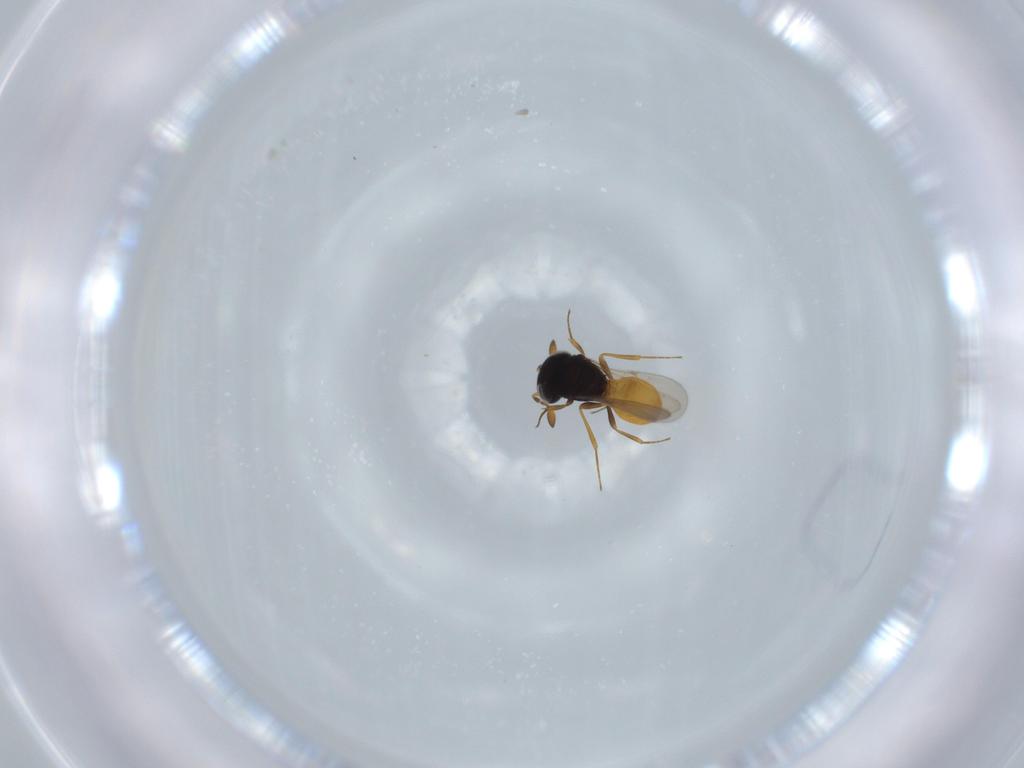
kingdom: Animalia
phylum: Arthropoda
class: Insecta
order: Hymenoptera
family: Scelionidae
